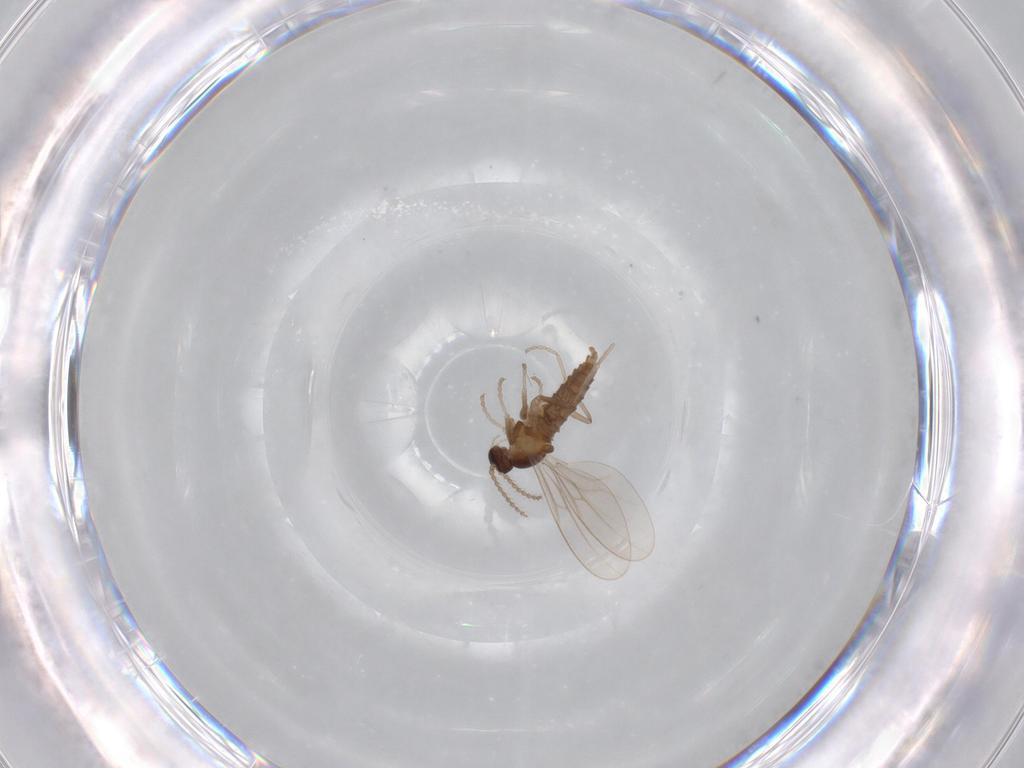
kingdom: Animalia
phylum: Arthropoda
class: Insecta
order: Diptera
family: Cecidomyiidae
